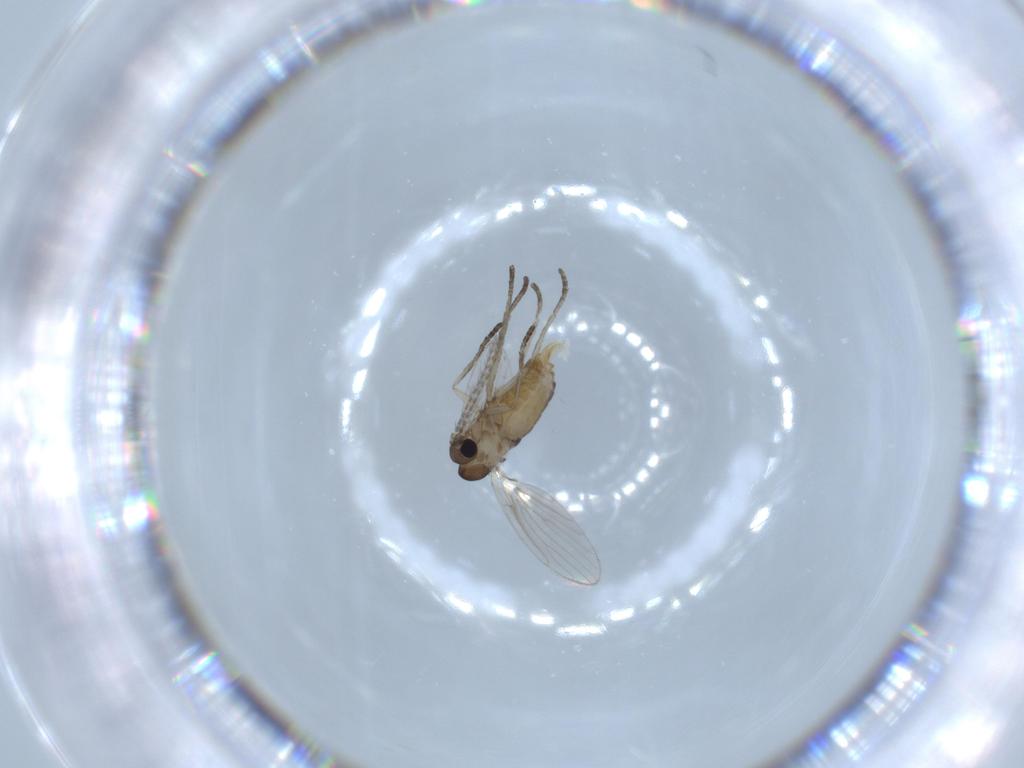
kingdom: Animalia
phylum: Arthropoda
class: Insecta
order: Diptera
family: Psychodidae
